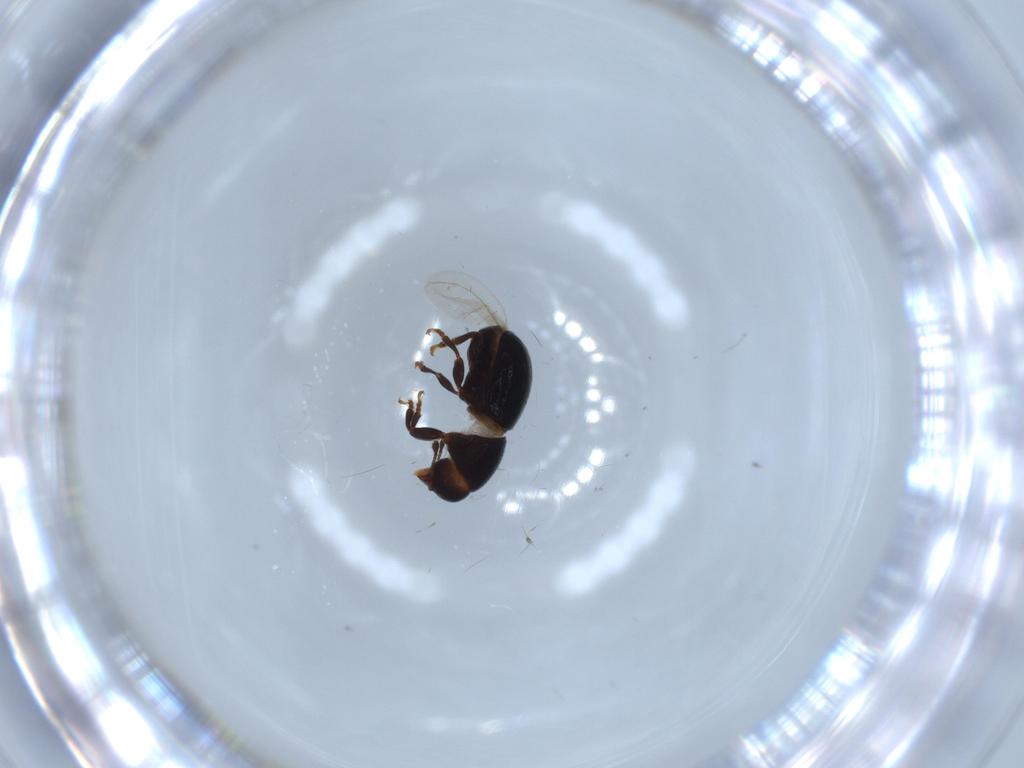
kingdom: Animalia
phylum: Arthropoda
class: Insecta
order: Coleoptera
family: Anthribidae
